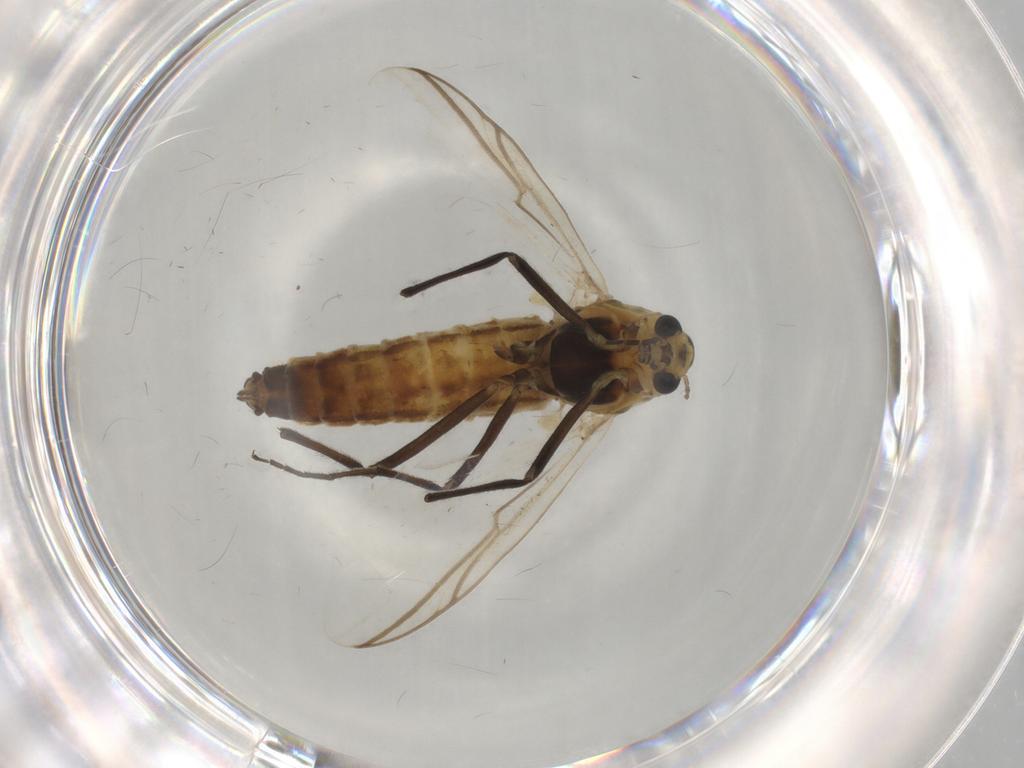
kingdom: Animalia
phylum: Arthropoda
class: Insecta
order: Diptera
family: Chironomidae
